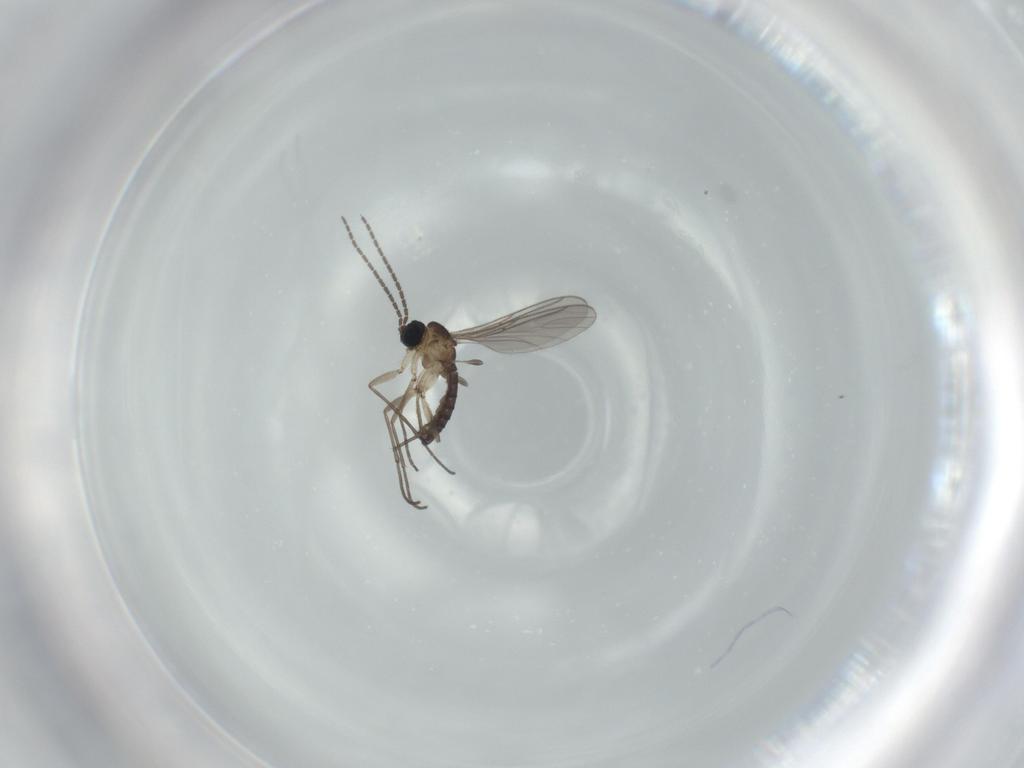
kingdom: Animalia
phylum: Arthropoda
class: Insecta
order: Diptera
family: Sciaridae
